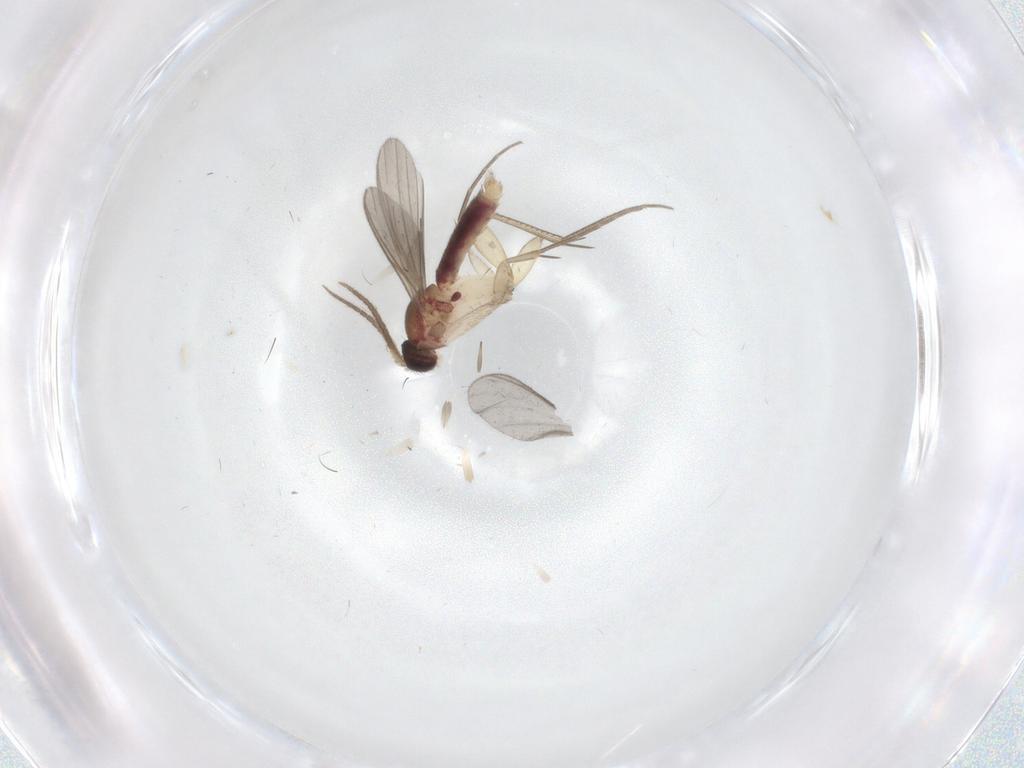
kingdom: Animalia
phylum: Arthropoda
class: Insecta
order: Diptera
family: Mycetophilidae
